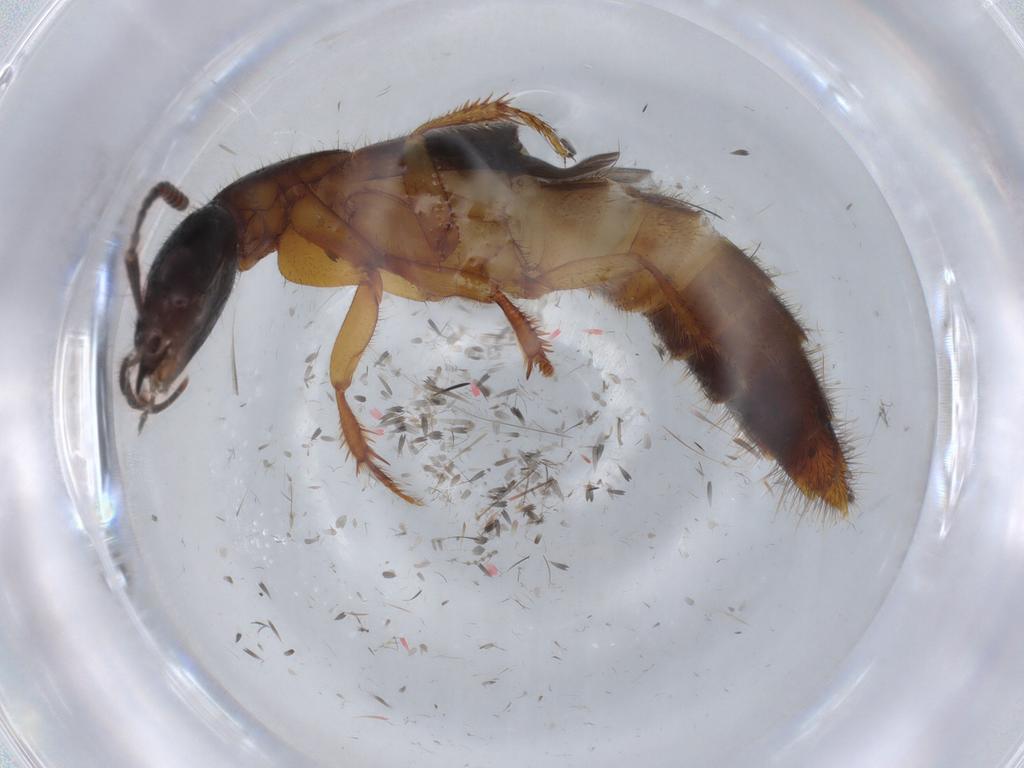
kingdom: Animalia
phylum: Arthropoda
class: Insecta
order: Coleoptera
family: Staphylinidae
